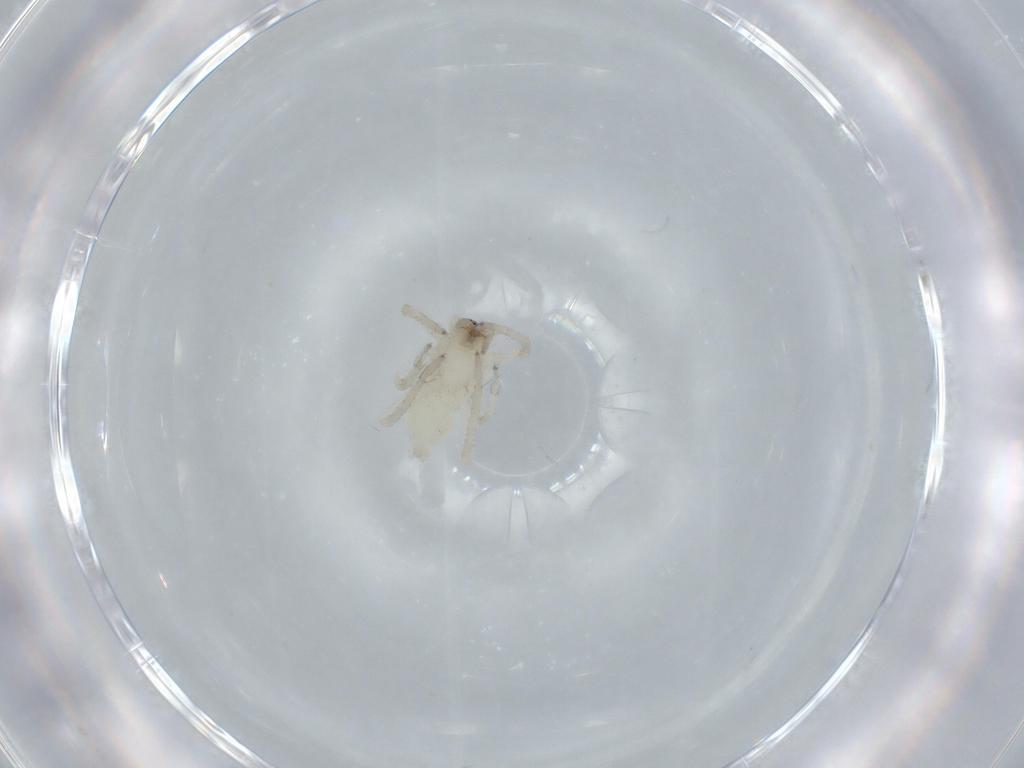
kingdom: Animalia
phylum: Arthropoda
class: Arachnida
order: Araneae
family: Anyphaenidae
